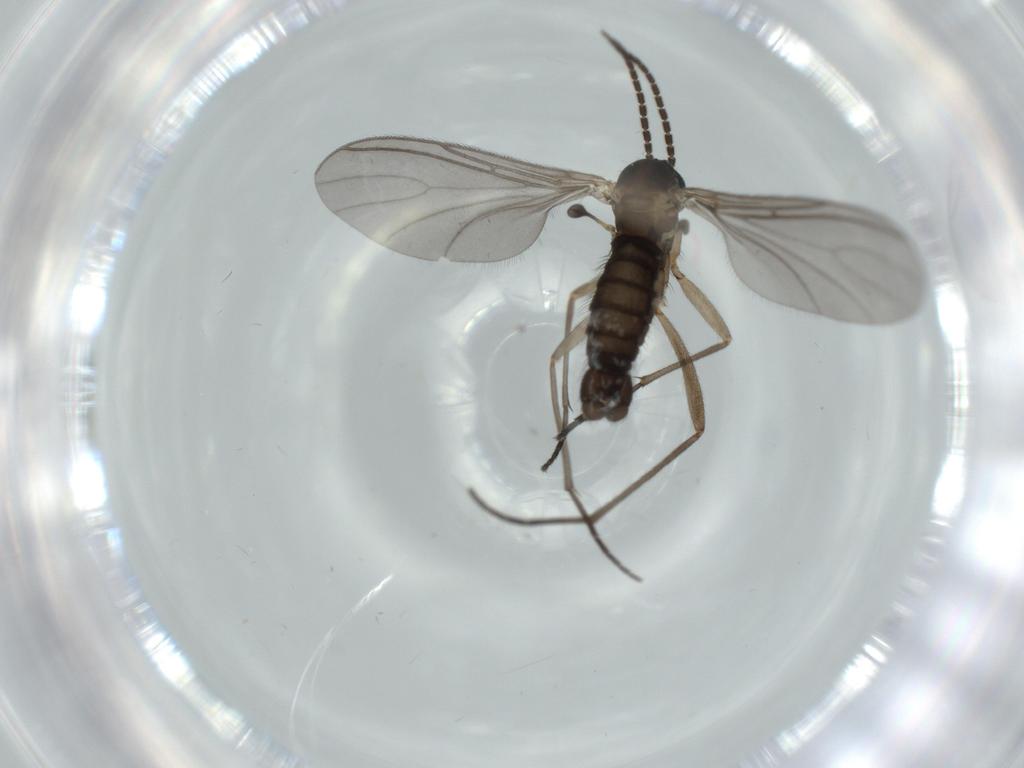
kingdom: Animalia
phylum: Arthropoda
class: Insecta
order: Diptera
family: Sciaridae
